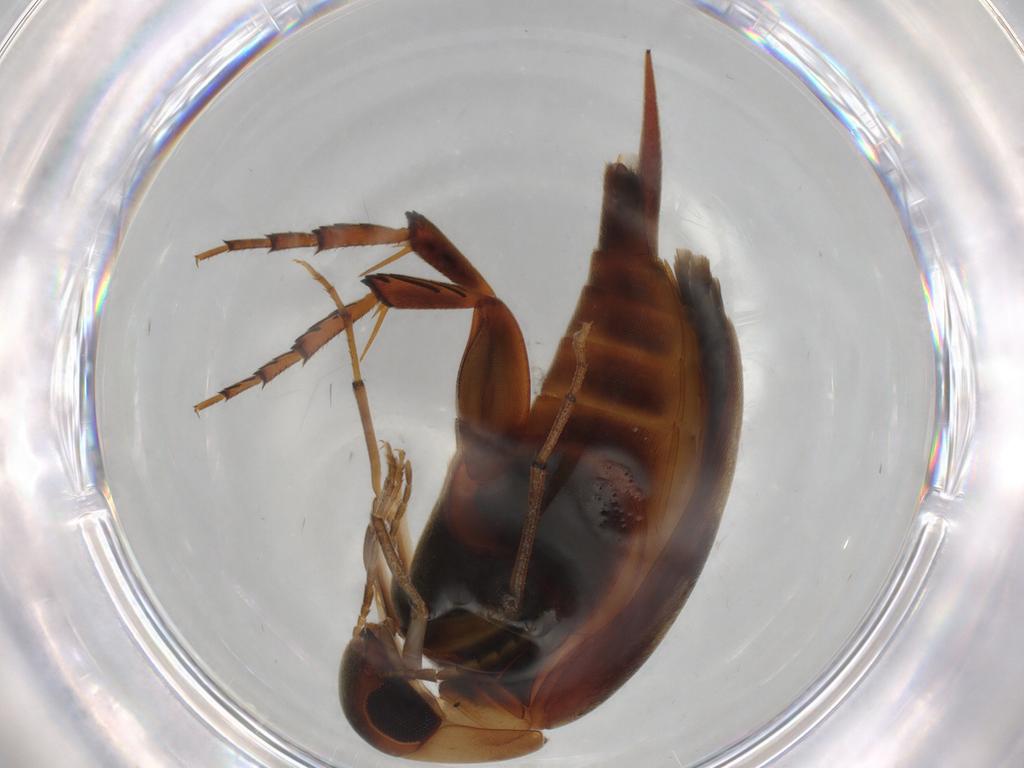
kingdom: Animalia
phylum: Arthropoda
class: Insecta
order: Coleoptera
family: Mordellidae
